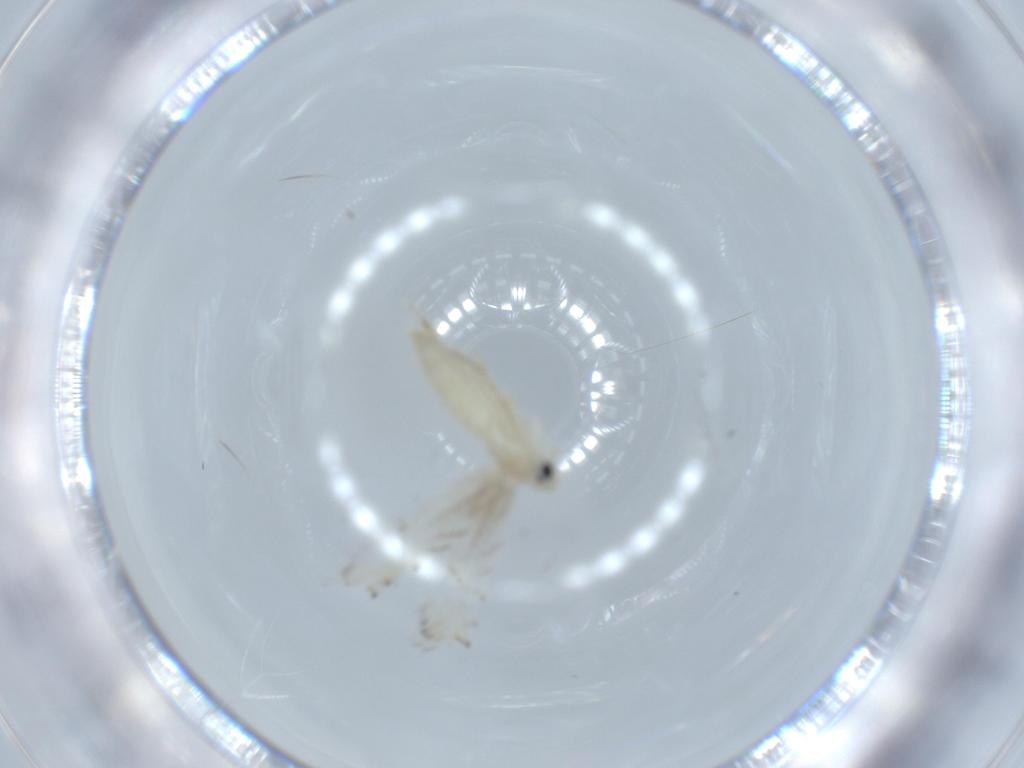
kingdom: Animalia
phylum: Arthropoda
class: Insecta
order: Lepidoptera
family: Gracillariidae
